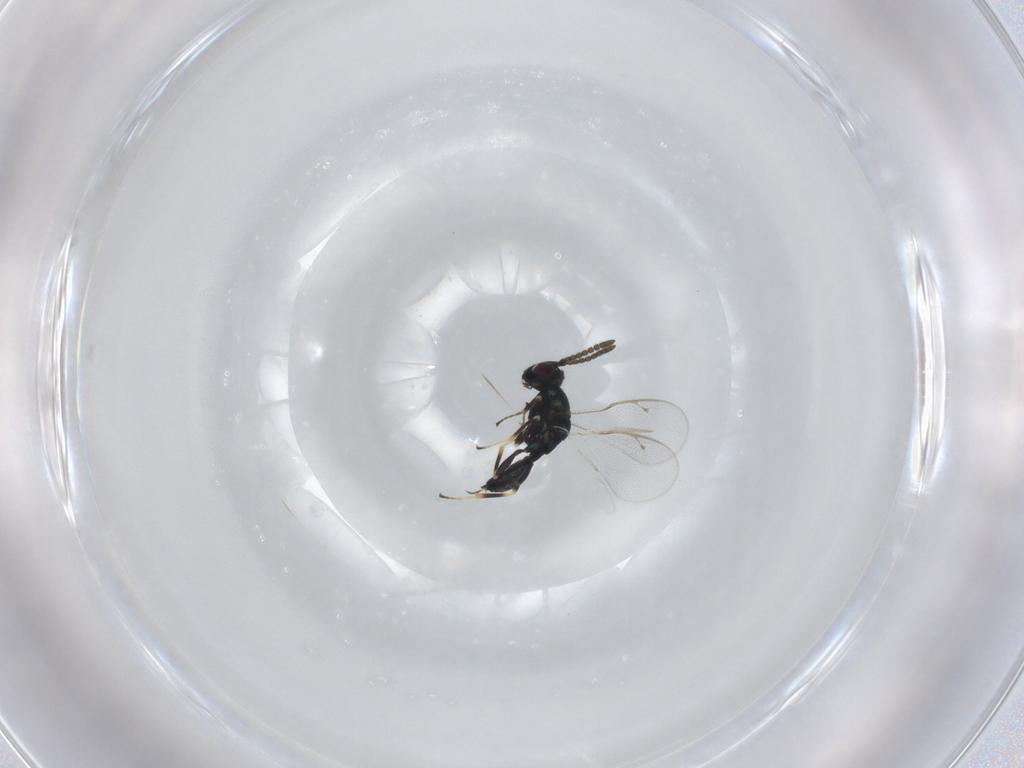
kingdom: Animalia
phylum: Arthropoda
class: Insecta
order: Hymenoptera
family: Pteromalidae
